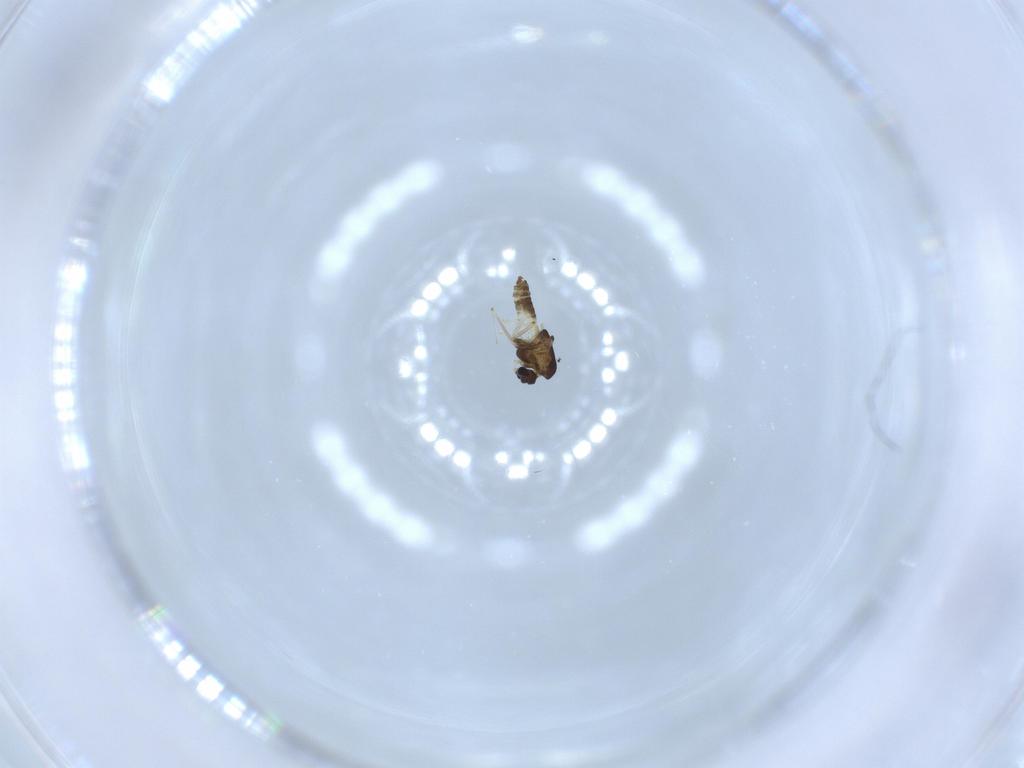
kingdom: Animalia
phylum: Arthropoda
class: Insecta
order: Diptera
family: Chironomidae
